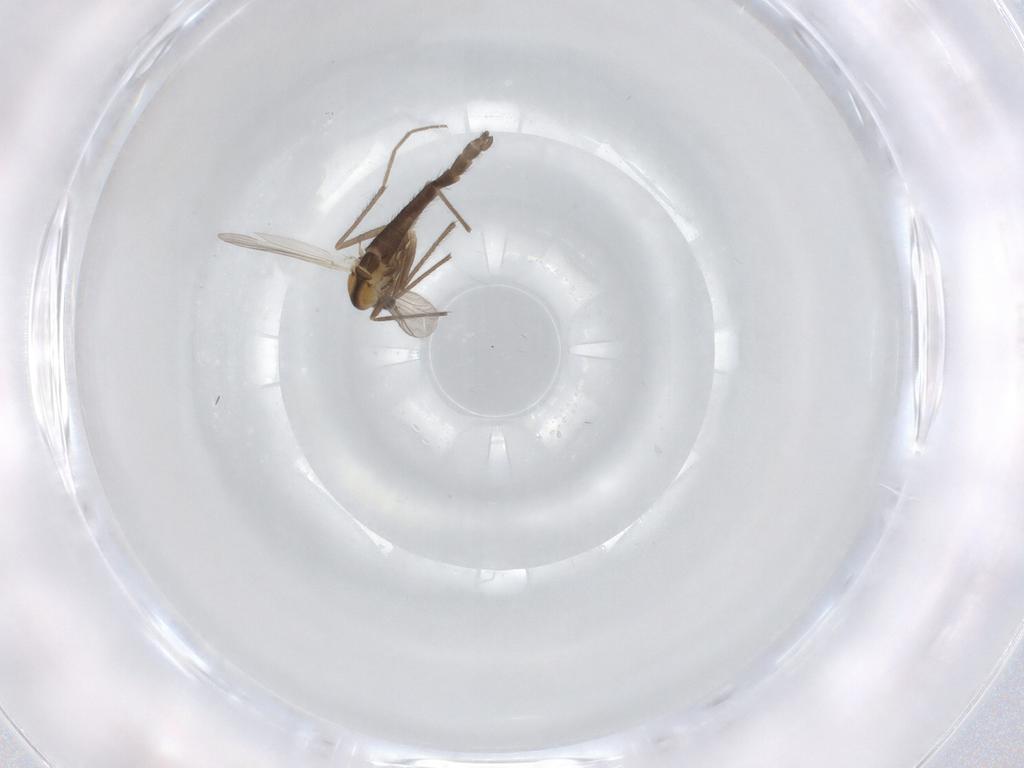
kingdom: Animalia
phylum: Arthropoda
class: Insecta
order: Diptera
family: Chironomidae
